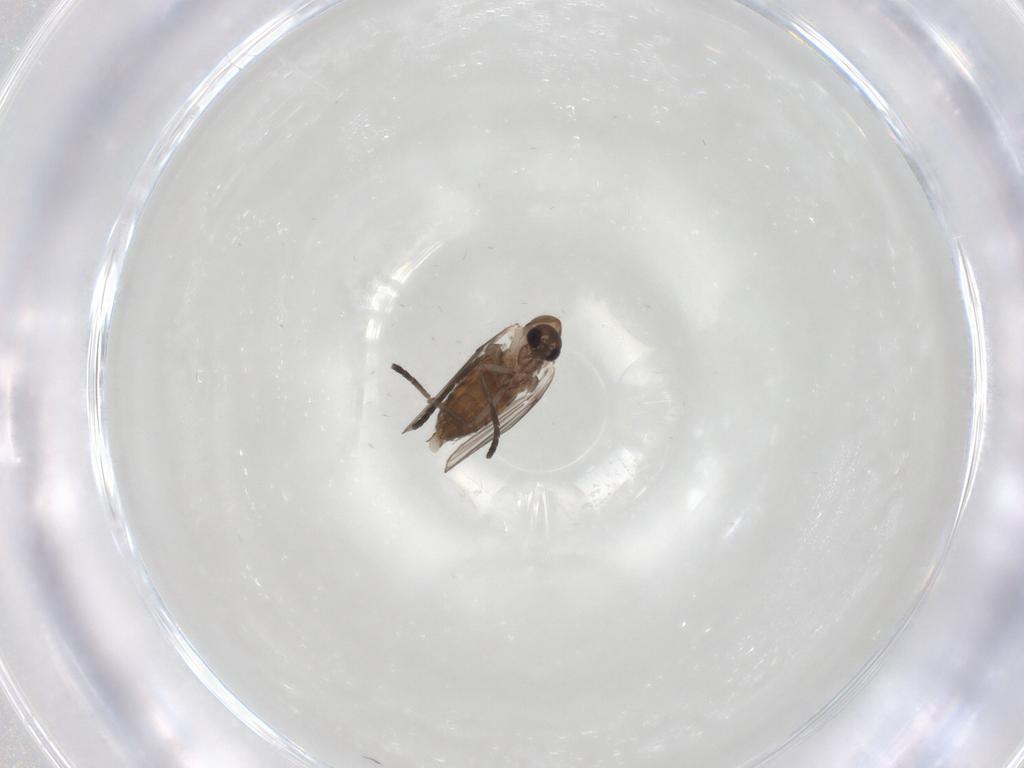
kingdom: Animalia
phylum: Arthropoda
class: Insecta
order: Diptera
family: Psychodidae
